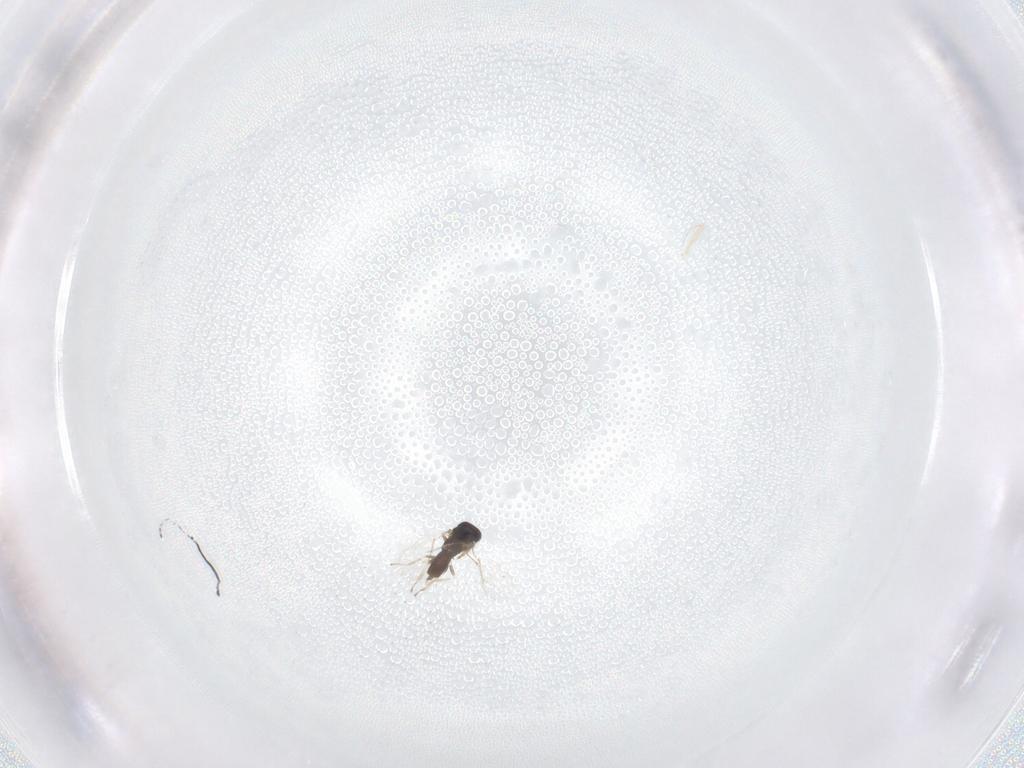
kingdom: Animalia
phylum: Arthropoda
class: Insecta
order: Hymenoptera
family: Eulophidae
